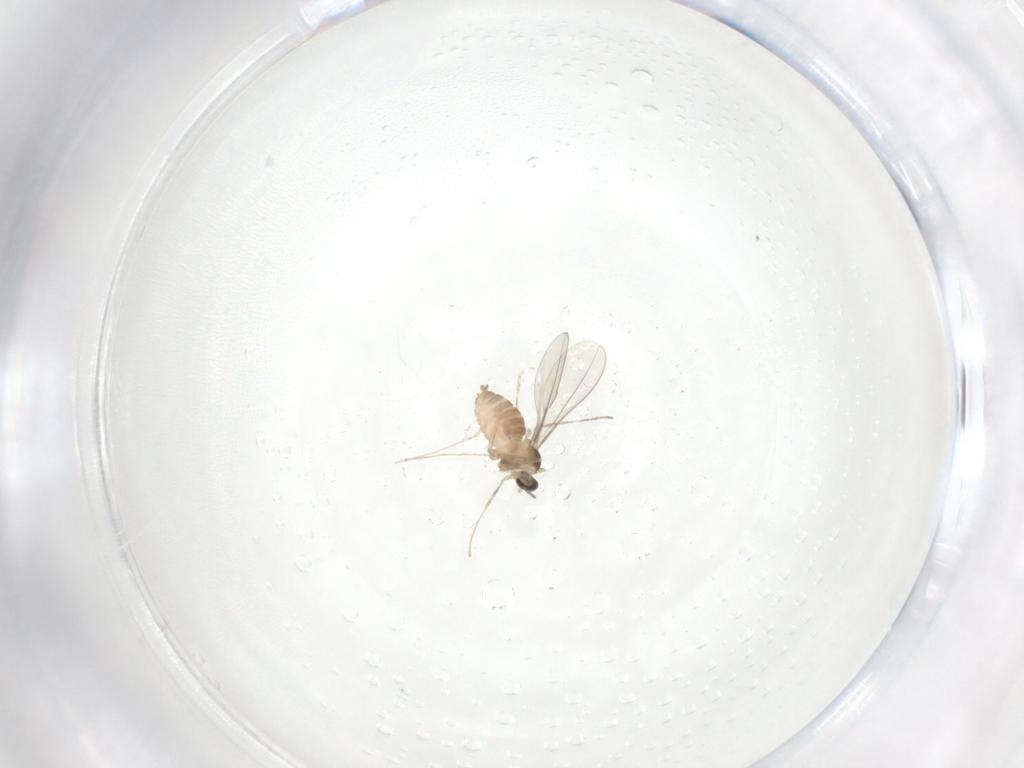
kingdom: Animalia
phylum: Arthropoda
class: Insecta
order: Diptera
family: Cecidomyiidae
